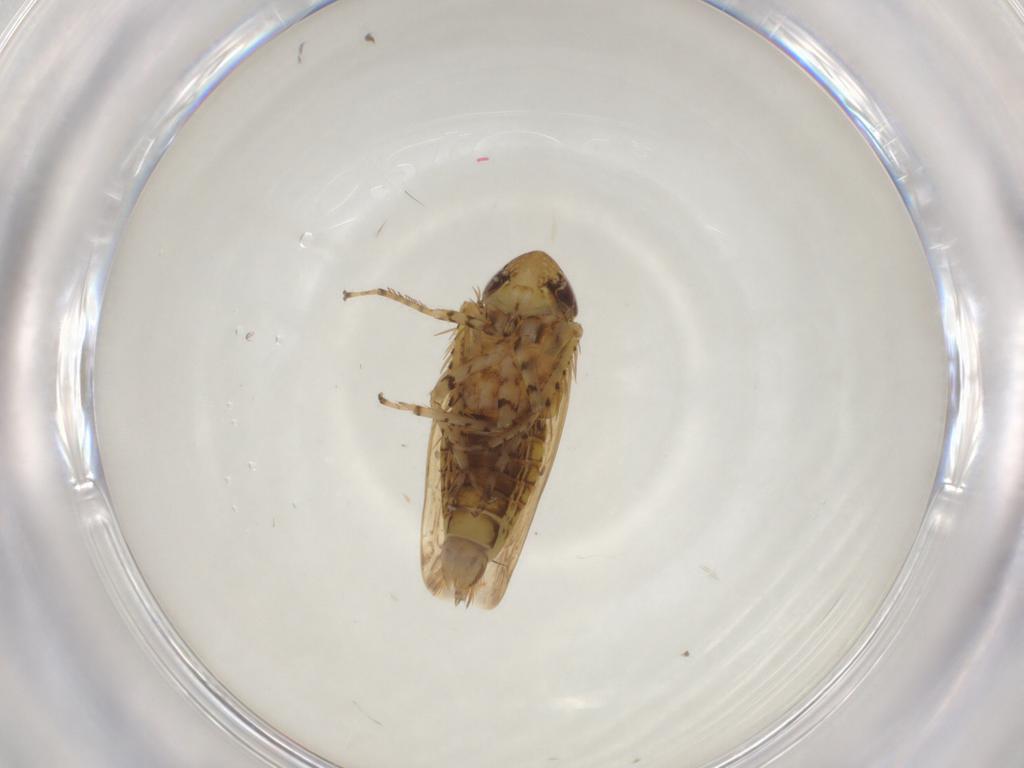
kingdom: Animalia
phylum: Arthropoda
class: Insecta
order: Hemiptera
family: Cicadellidae
